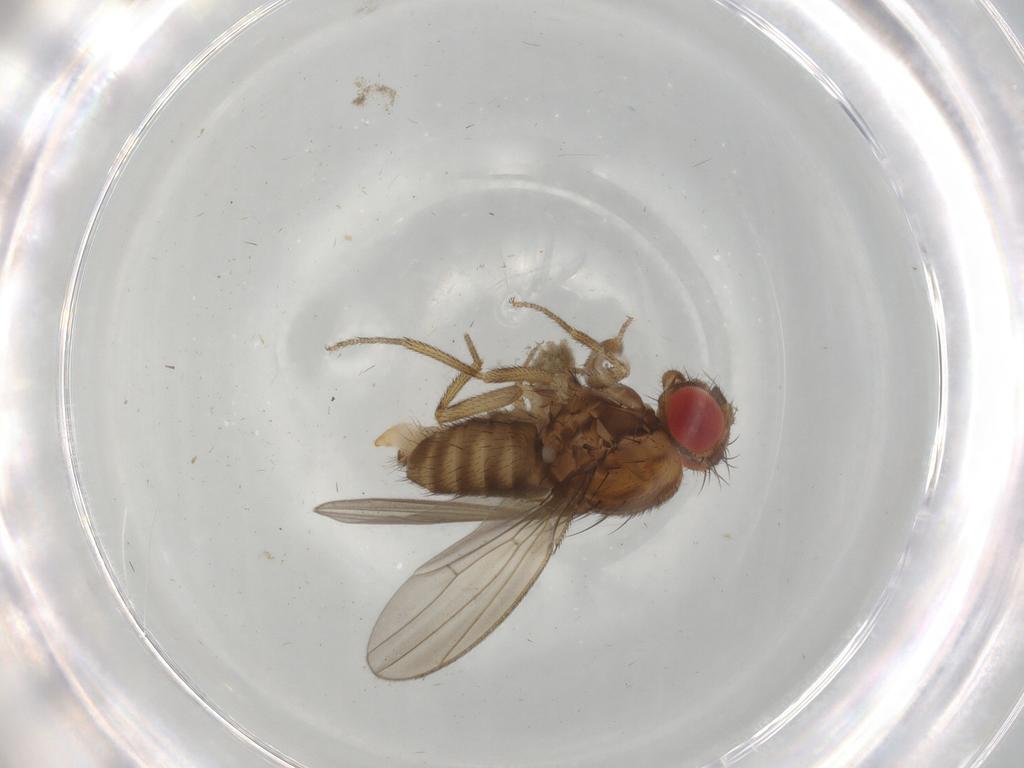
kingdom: Animalia
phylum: Arthropoda
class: Insecta
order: Diptera
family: Drosophilidae
